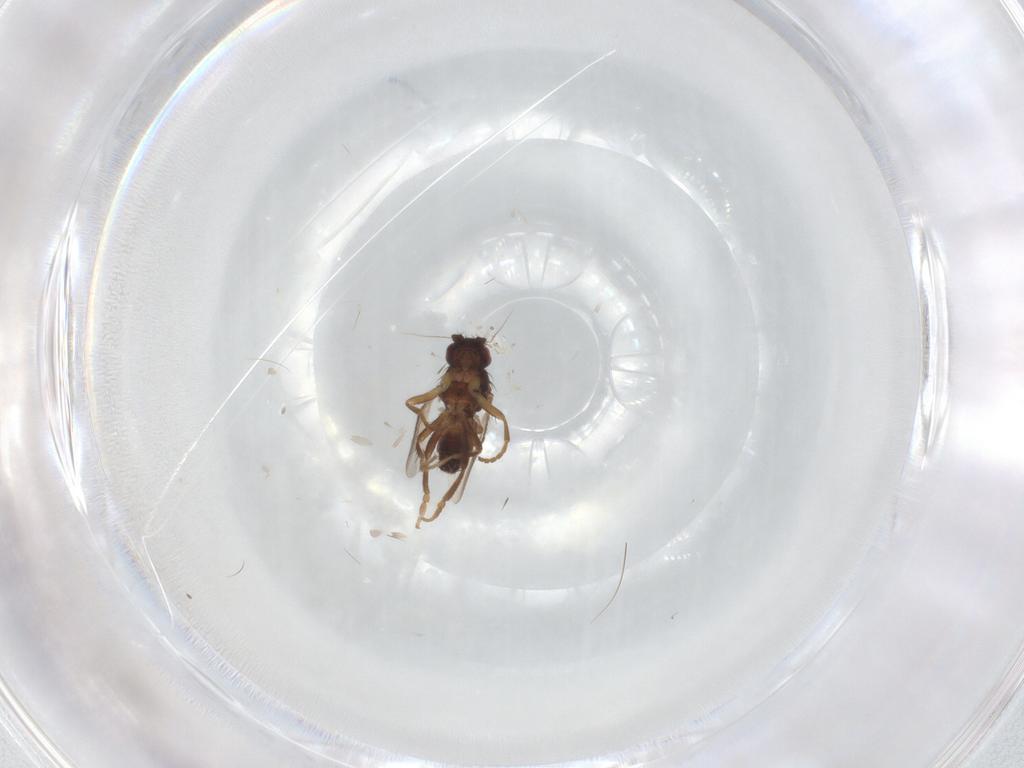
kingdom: Animalia
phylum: Arthropoda
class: Insecta
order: Diptera
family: Sphaeroceridae
